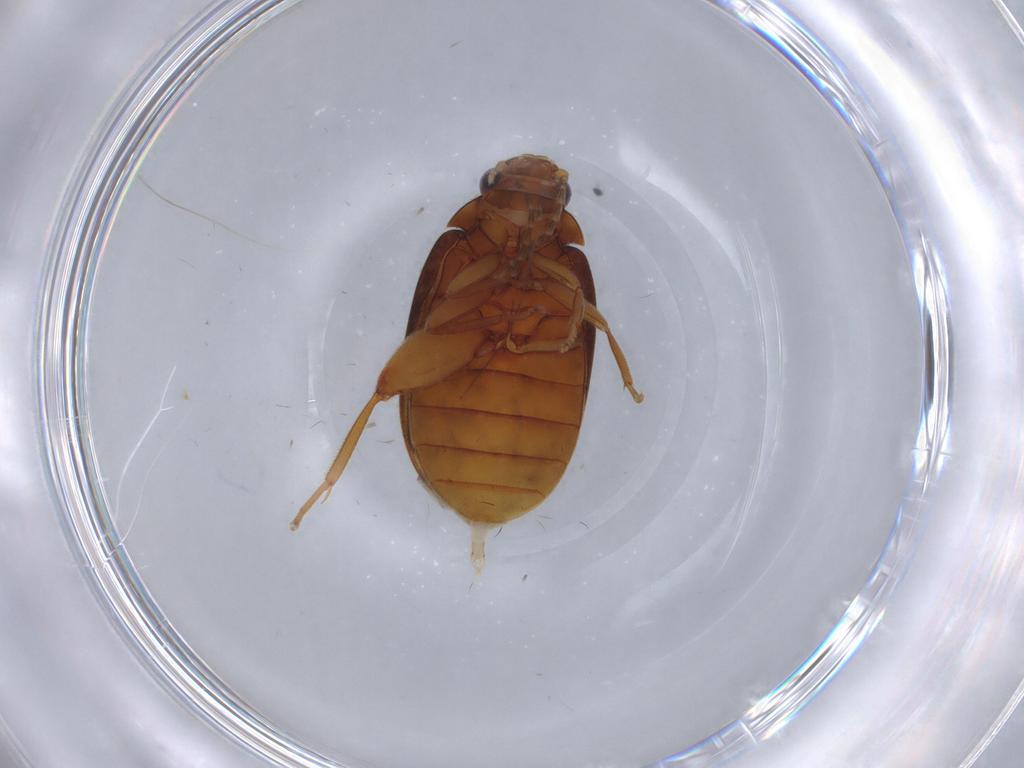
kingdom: Animalia
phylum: Arthropoda
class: Insecta
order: Coleoptera
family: Scirtidae
